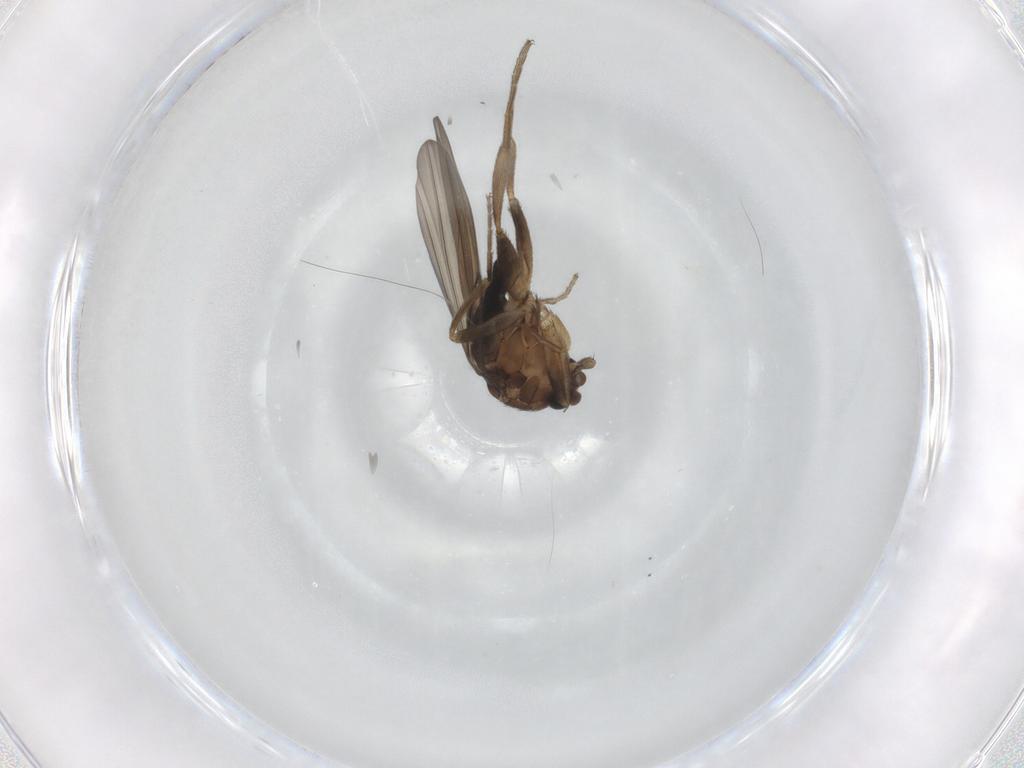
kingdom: Animalia
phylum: Arthropoda
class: Insecta
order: Diptera
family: Phoridae
